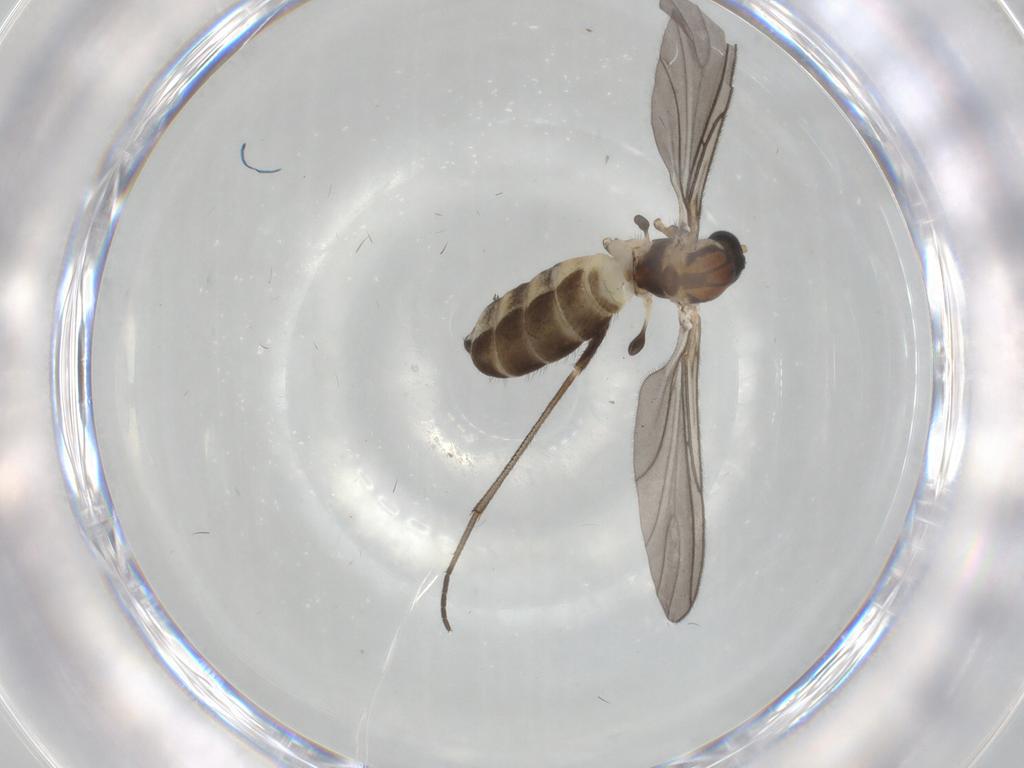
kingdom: Animalia
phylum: Arthropoda
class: Insecta
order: Diptera
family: Sciaridae
